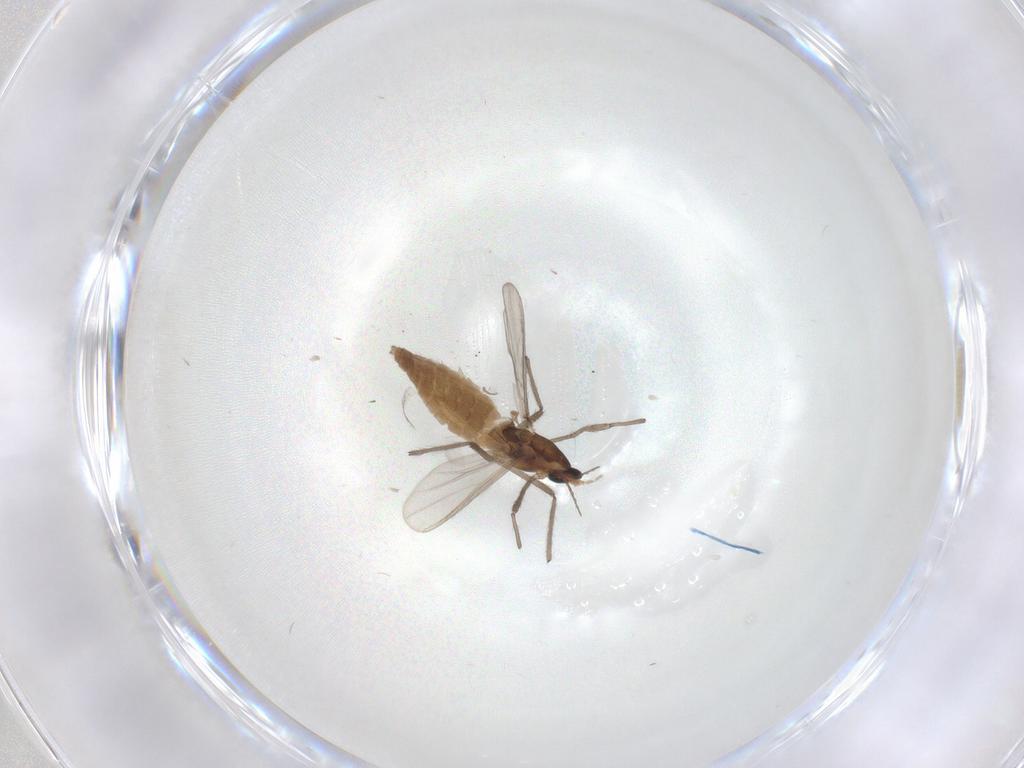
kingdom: Animalia
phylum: Arthropoda
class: Insecta
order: Diptera
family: Chironomidae
